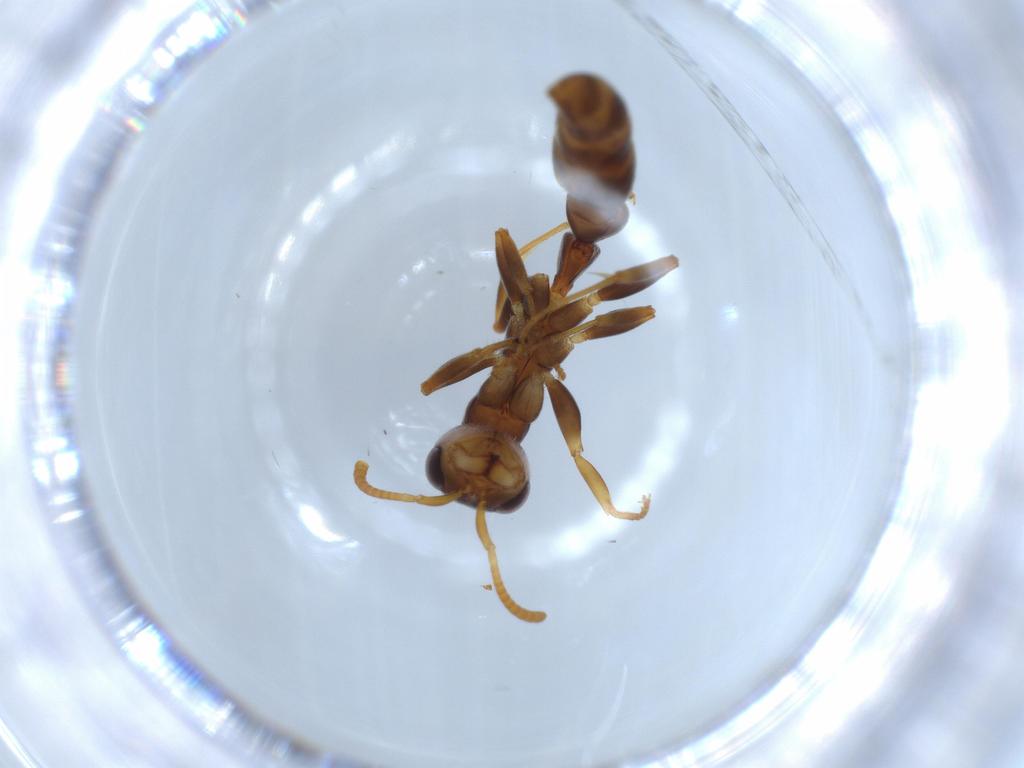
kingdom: Animalia
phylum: Arthropoda
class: Insecta
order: Hymenoptera
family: Formicidae
